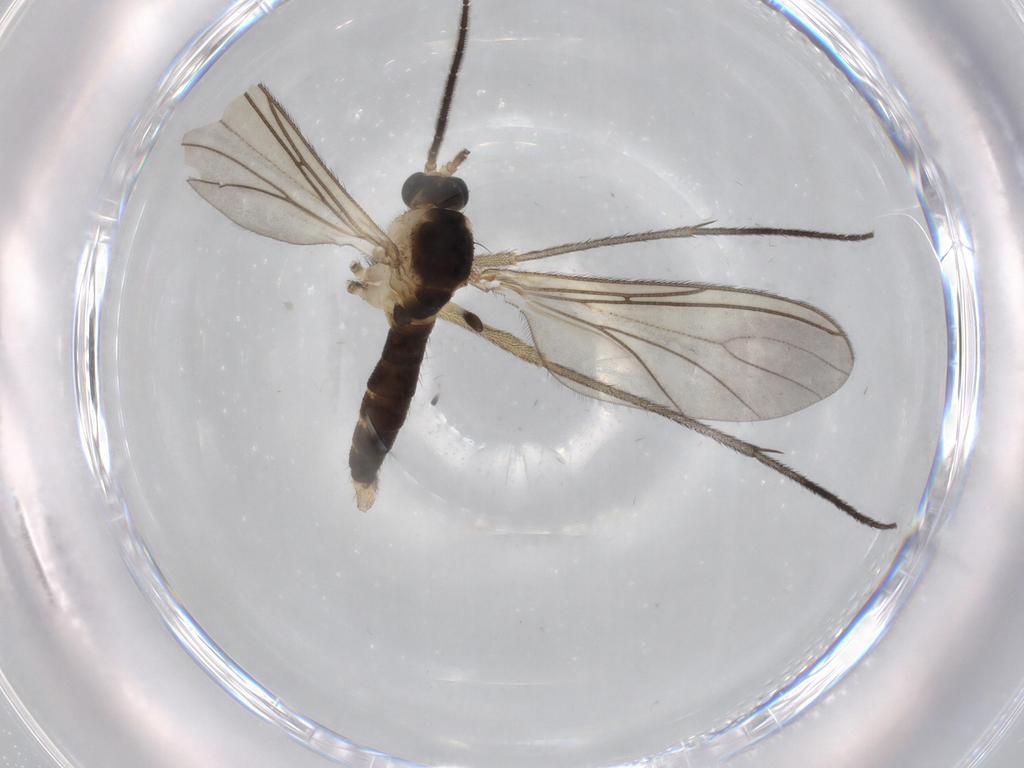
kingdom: Animalia
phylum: Arthropoda
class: Insecta
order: Diptera
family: Sciaridae
